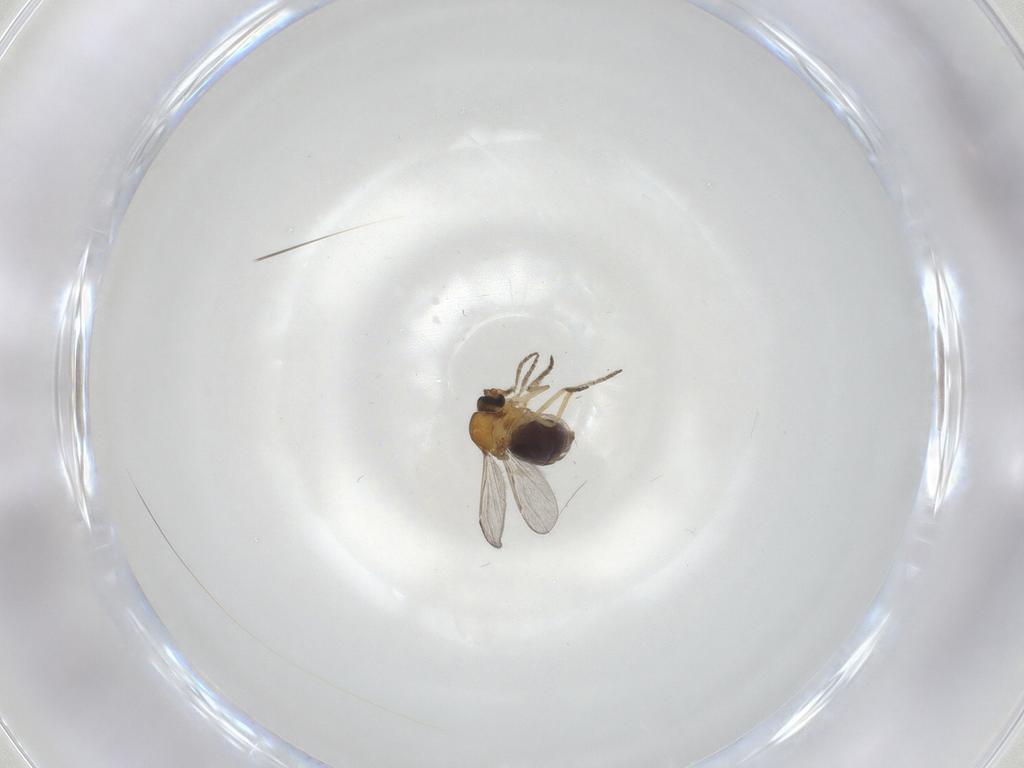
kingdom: Animalia
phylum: Arthropoda
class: Insecta
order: Diptera
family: Phoridae
